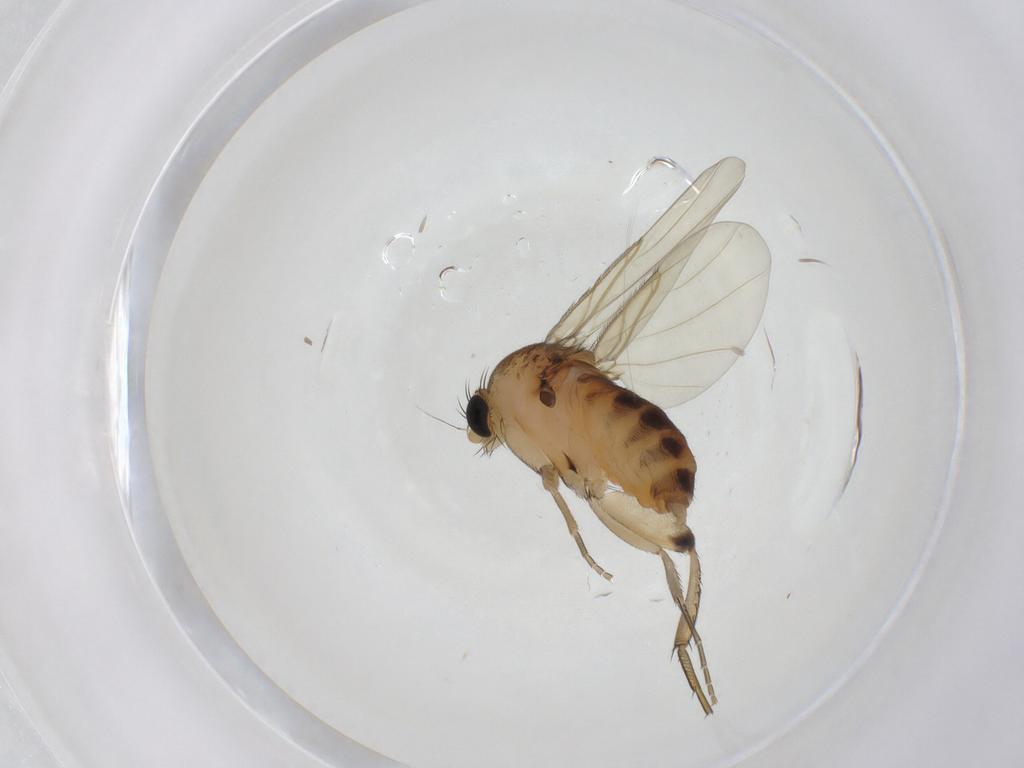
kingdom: Animalia
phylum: Arthropoda
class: Insecta
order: Diptera
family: Phoridae
